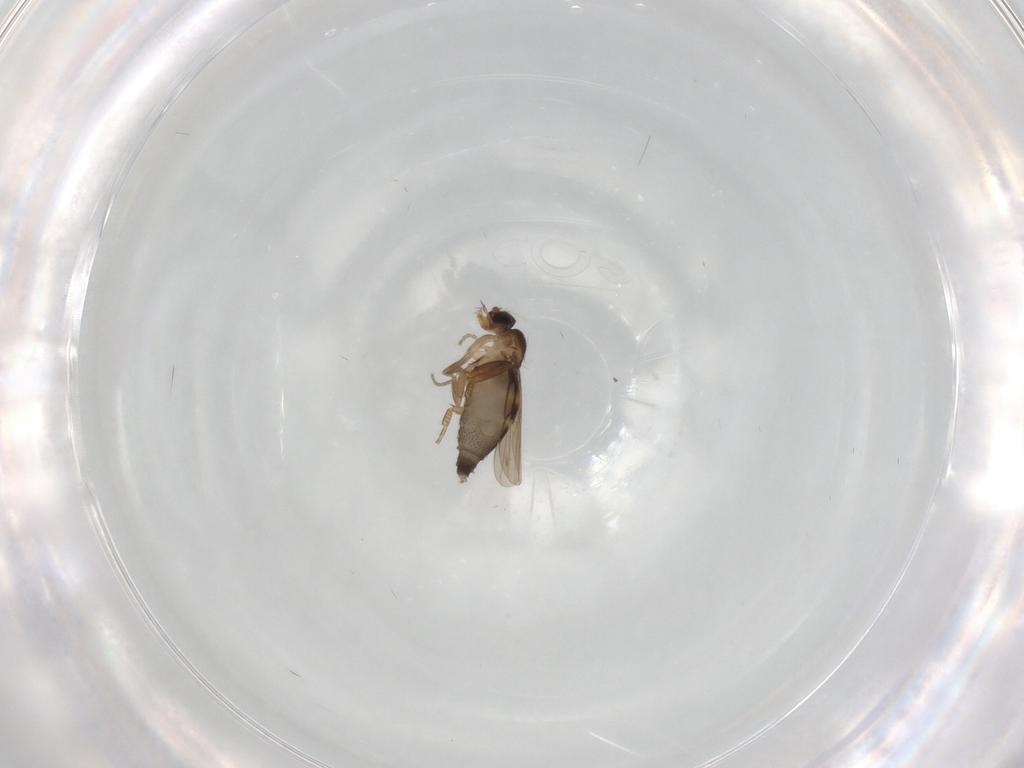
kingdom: Animalia
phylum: Arthropoda
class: Insecta
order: Diptera
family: Phoridae
